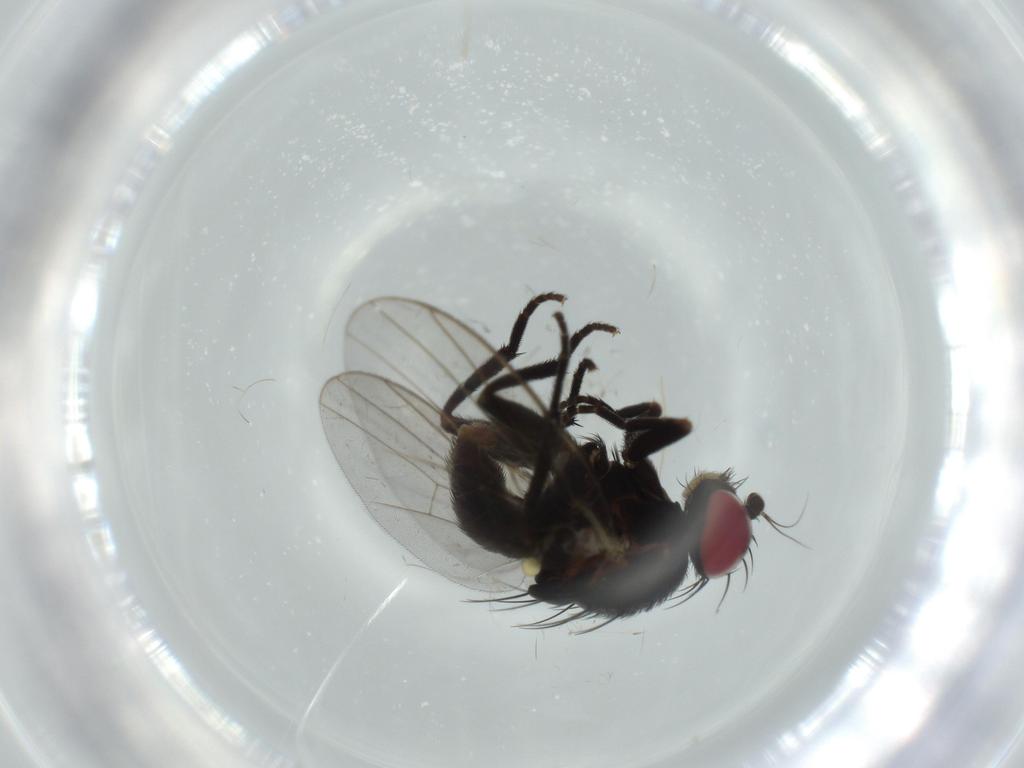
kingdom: Animalia
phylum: Arthropoda
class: Insecta
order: Diptera
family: Agromyzidae
